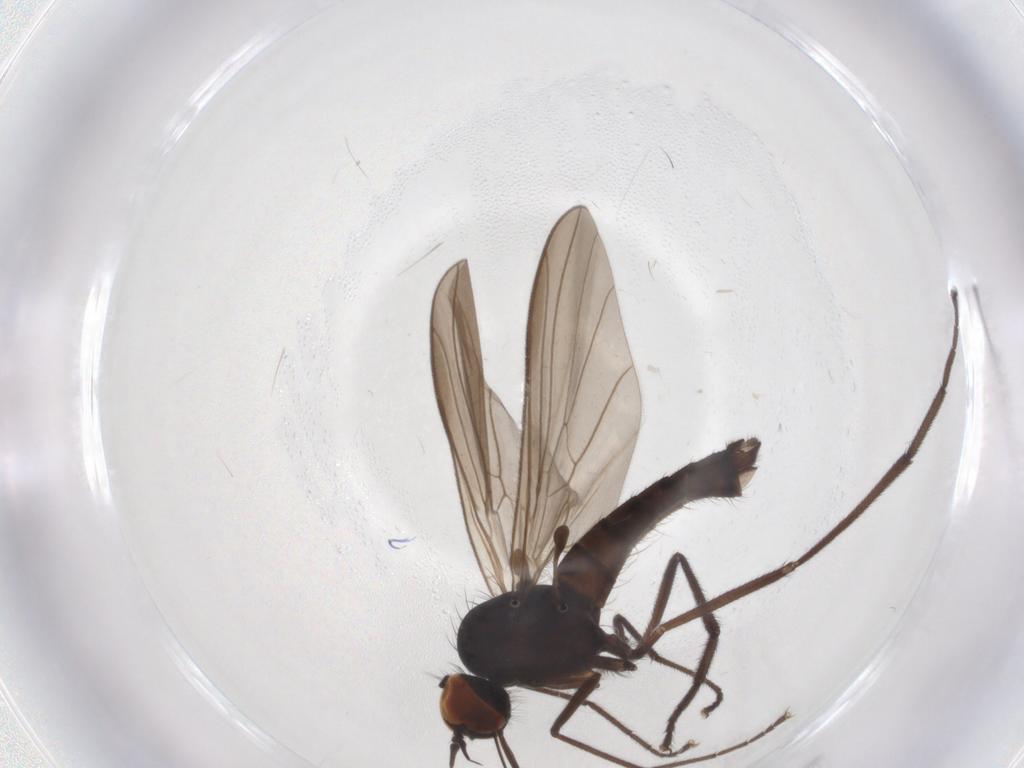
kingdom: Animalia
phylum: Arthropoda
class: Insecta
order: Diptera
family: Empididae
